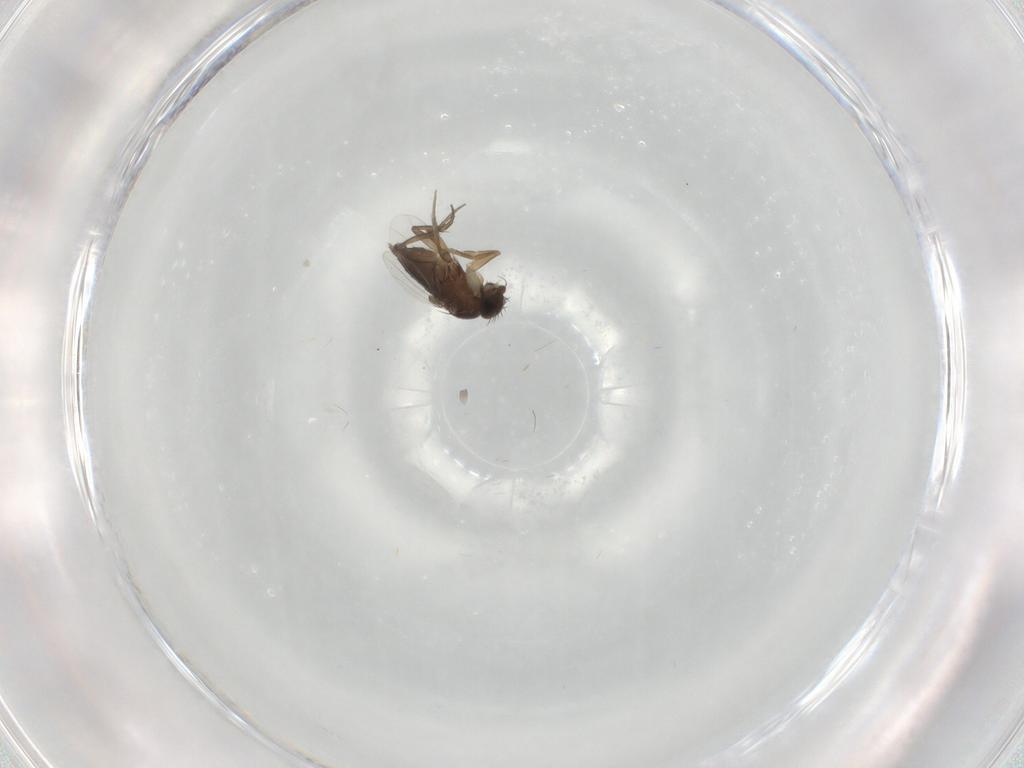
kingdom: Animalia
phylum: Arthropoda
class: Insecta
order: Diptera
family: Phoridae
